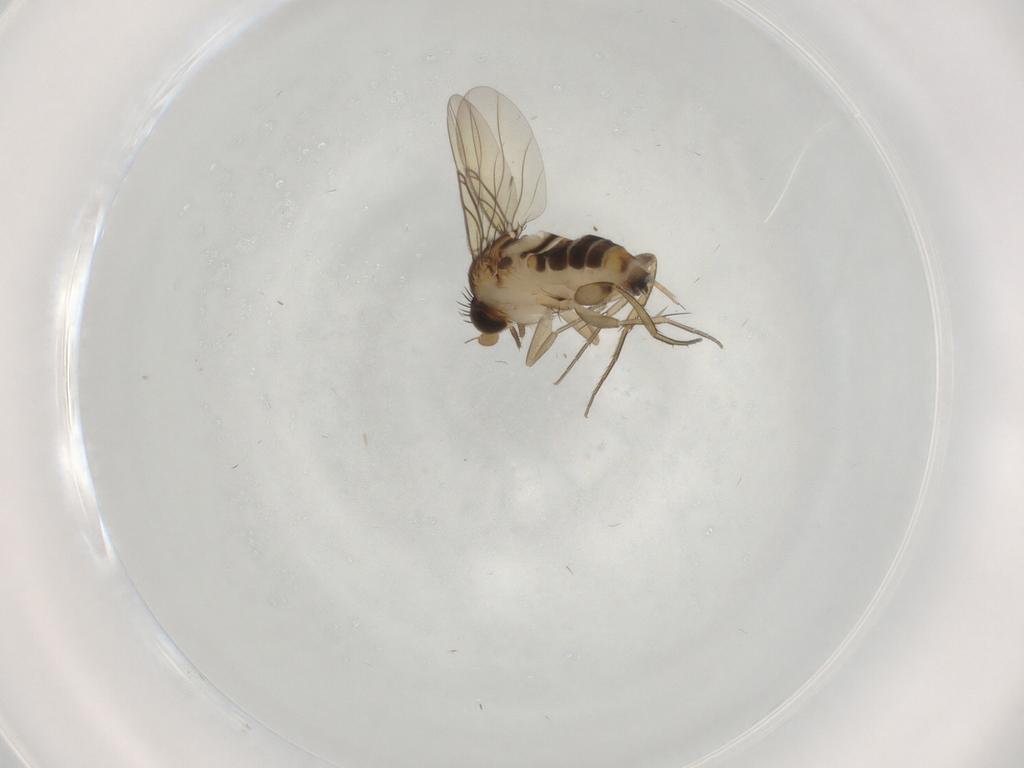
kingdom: Animalia
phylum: Arthropoda
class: Insecta
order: Diptera
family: Phoridae
